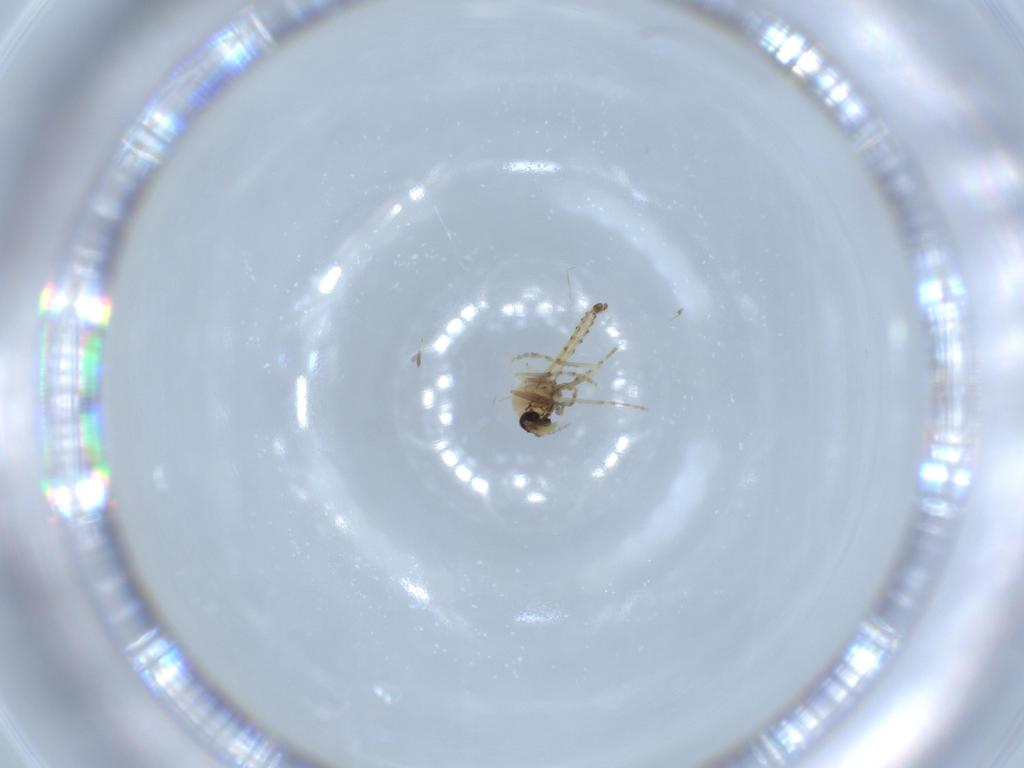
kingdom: Animalia
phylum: Arthropoda
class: Insecta
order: Diptera
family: Ceratopogonidae
